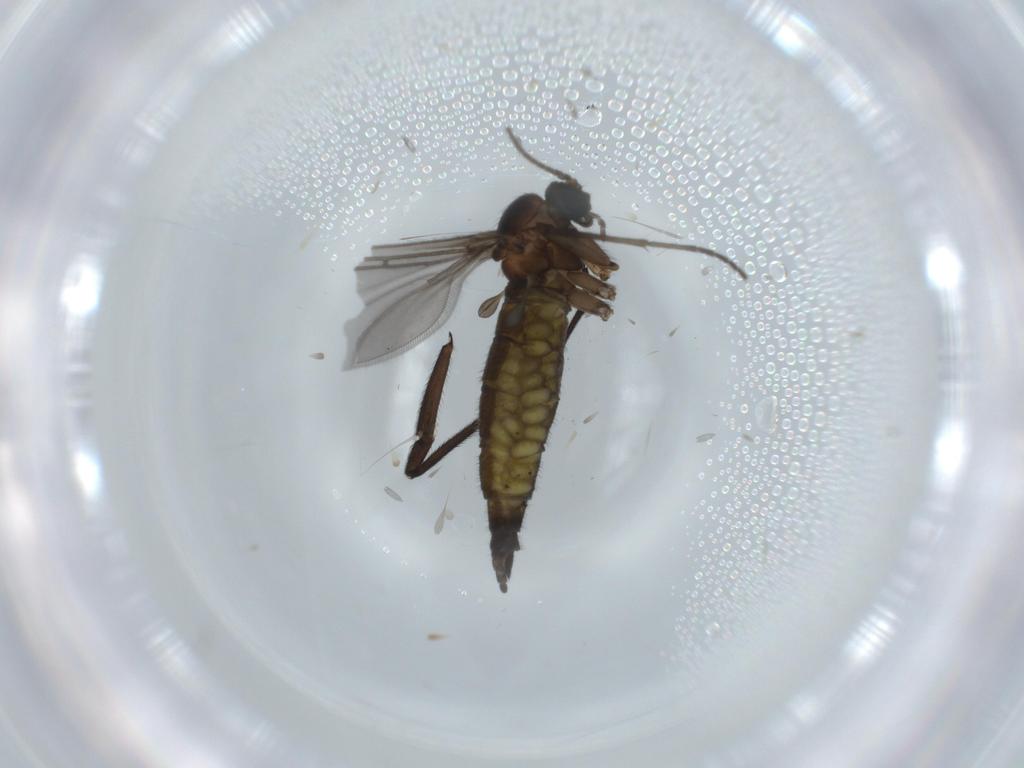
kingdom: Animalia
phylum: Arthropoda
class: Insecta
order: Diptera
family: Sciaridae
